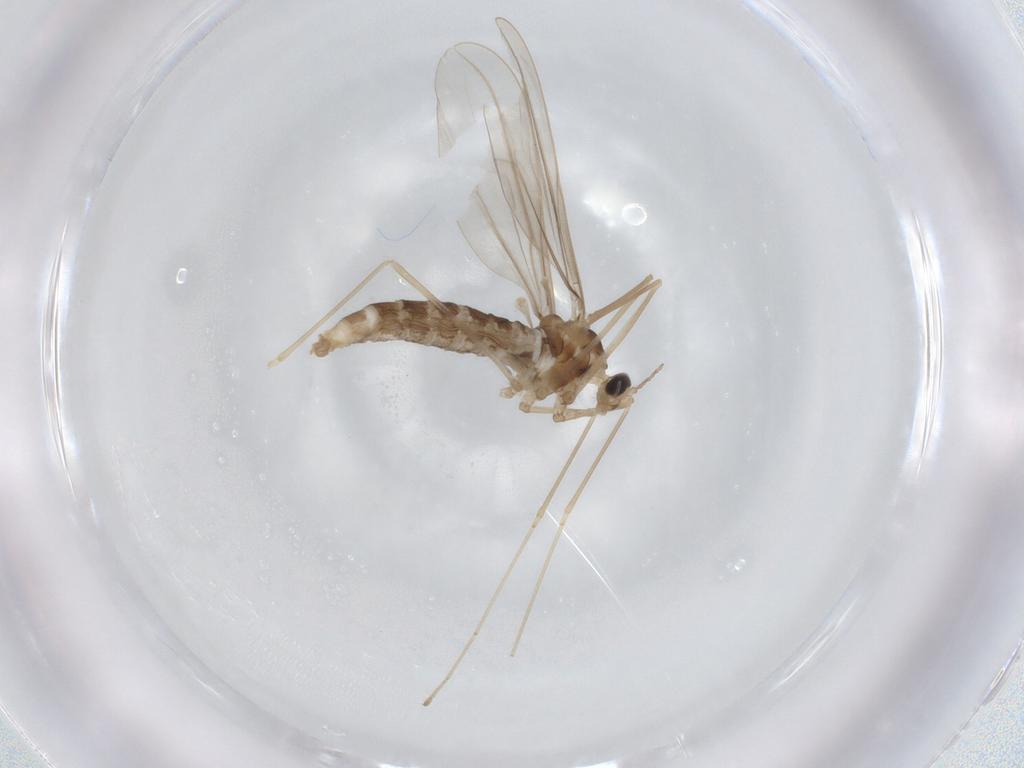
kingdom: Animalia
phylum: Arthropoda
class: Insecta
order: Diptera
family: Cecidomyiidae
